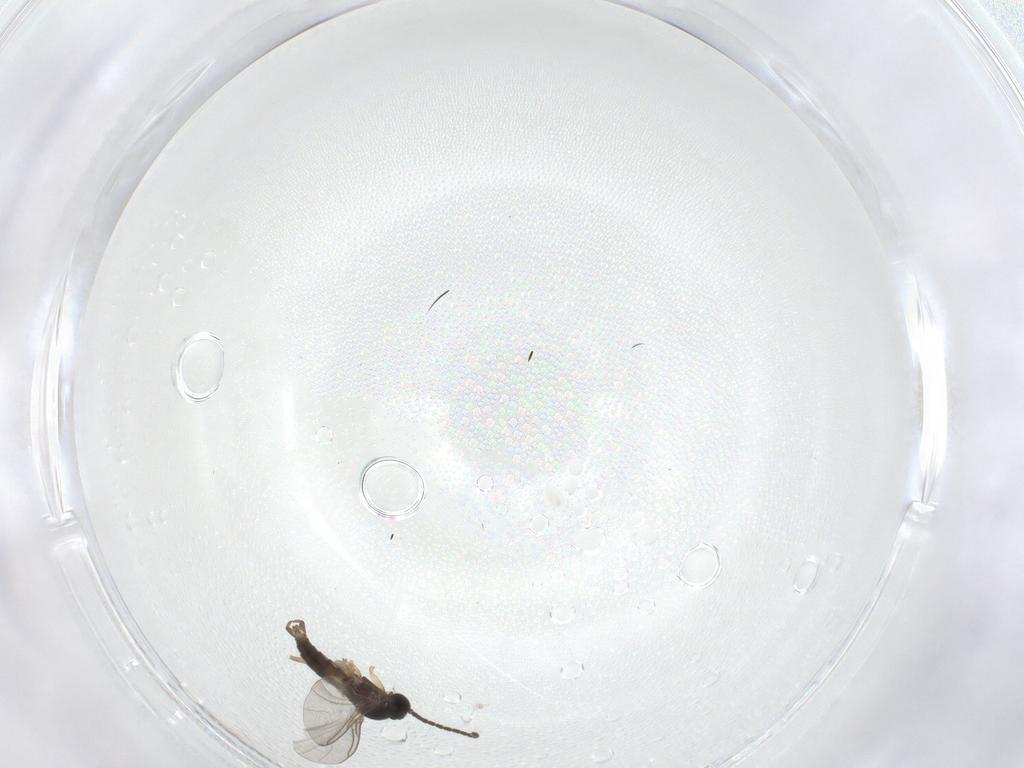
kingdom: Animalia
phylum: Arthropoda
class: Insecta
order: Diptera
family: Sciaridae
